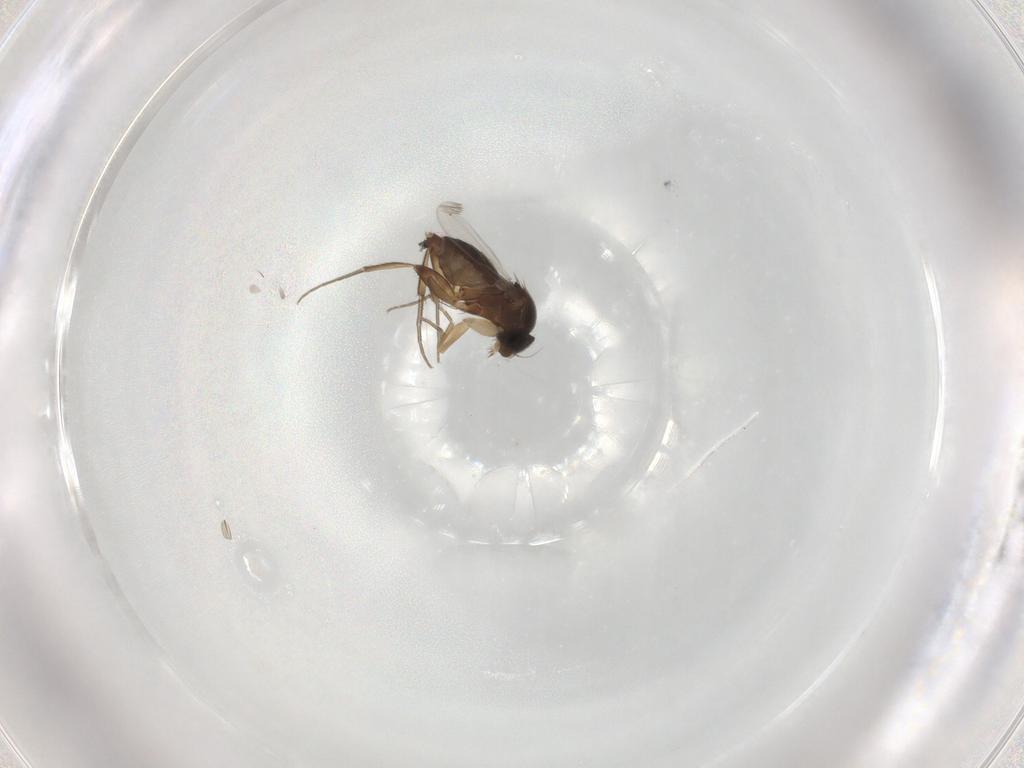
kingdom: Animalia
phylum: Arthropoda
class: Insecta
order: Diptera
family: Phoridae
